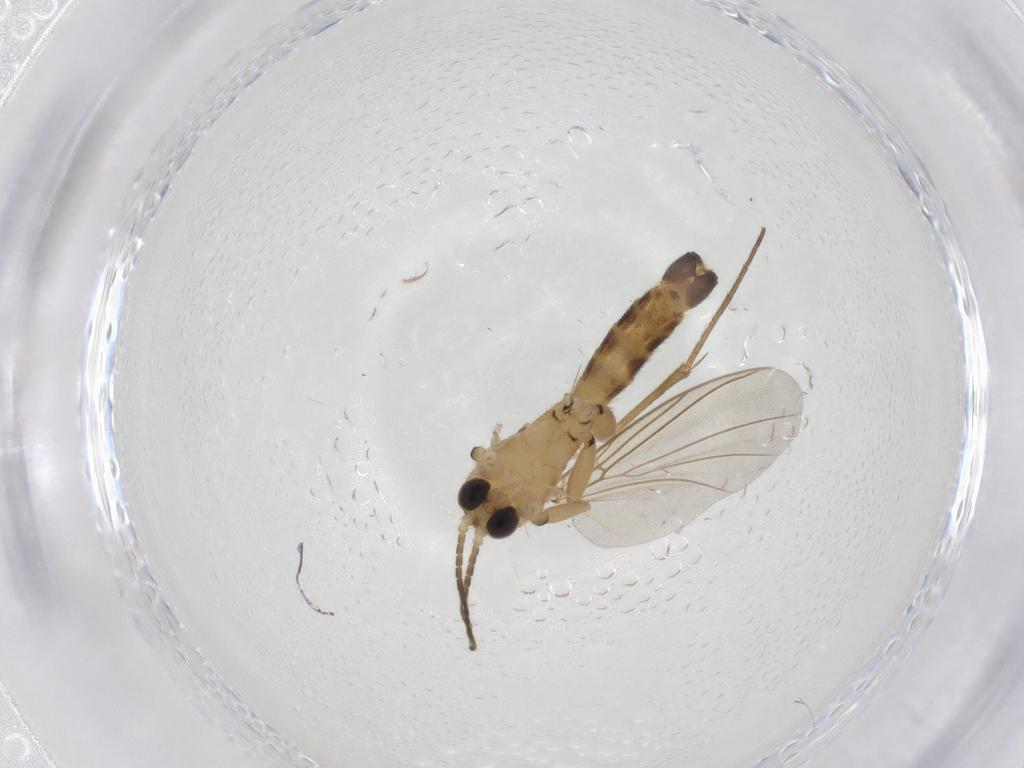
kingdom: Animalia
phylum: Arthropoda
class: Insecta
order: Diptera
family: Mycetophilidae
